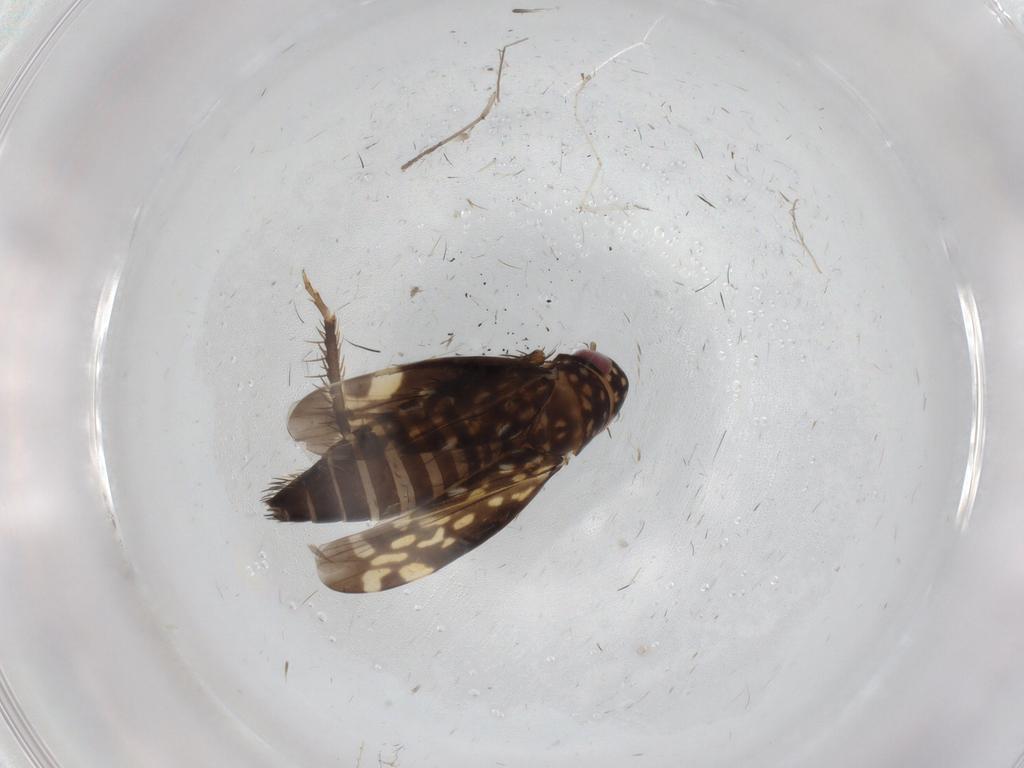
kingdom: Animalia
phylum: Arthropoda
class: Insecta
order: Hemiptera
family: Cicadellidae
